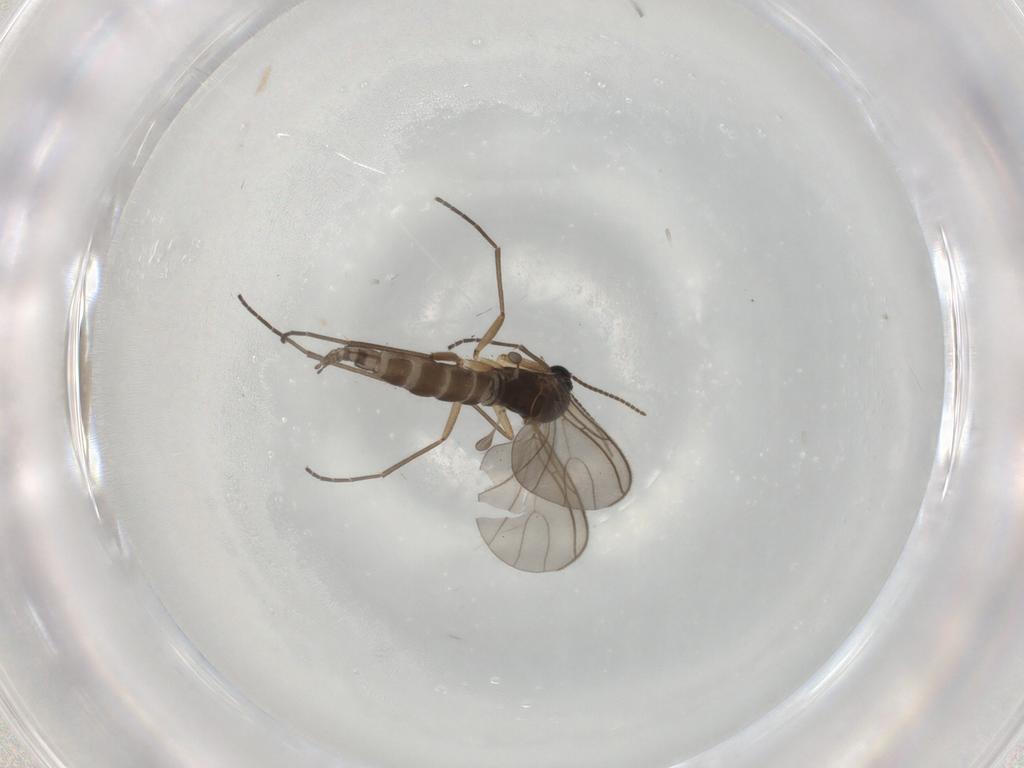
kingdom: Animalia
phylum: Arthropoda
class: Insecta
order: Diptera
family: Sciaridae
